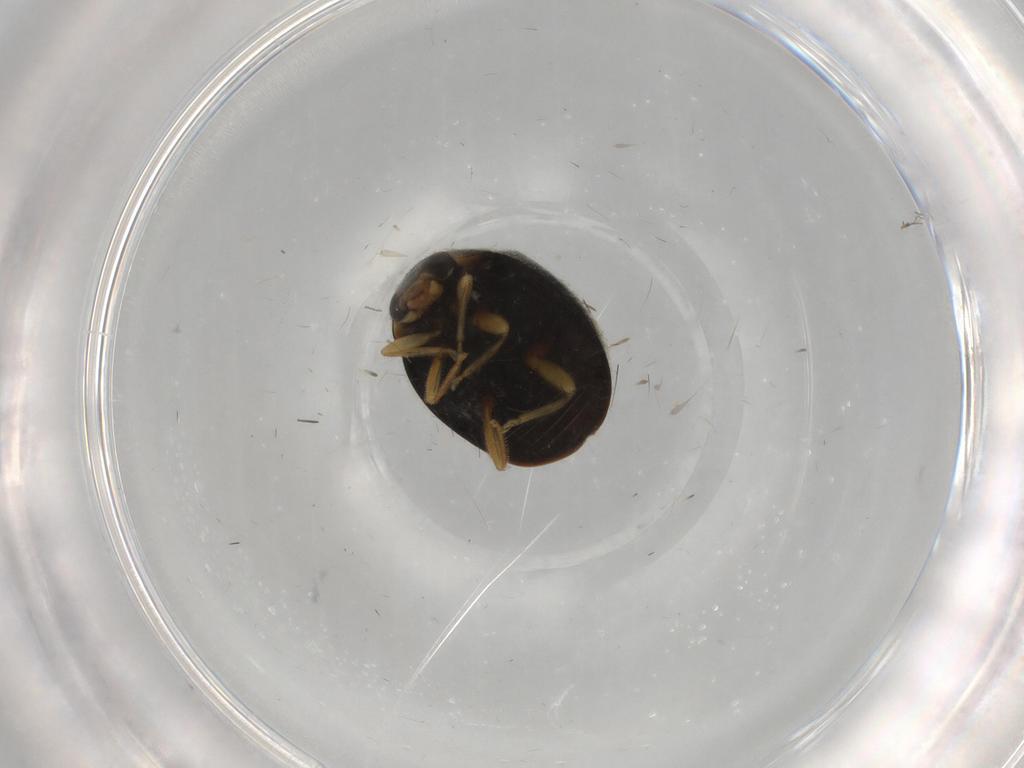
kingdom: Animalia
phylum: Arthropoda
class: Insecta
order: Coleoptera
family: Coccinellidae
